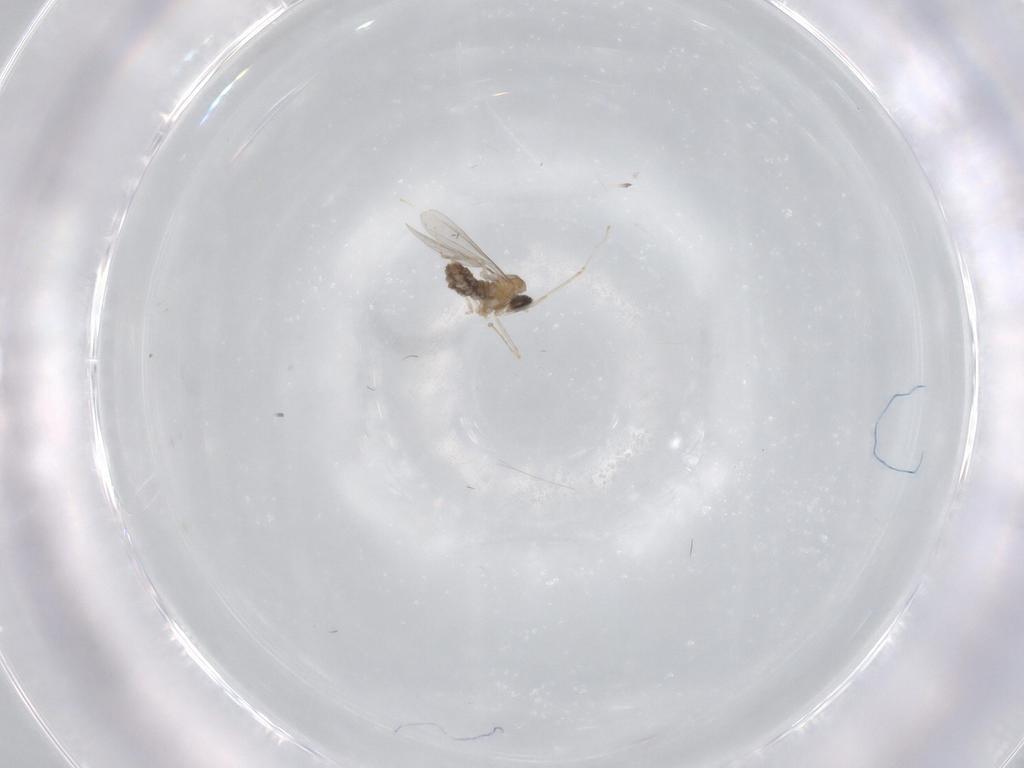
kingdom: Animalia
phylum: Arthropoda
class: Insecta
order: Diptera
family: Cecidomyiidae
